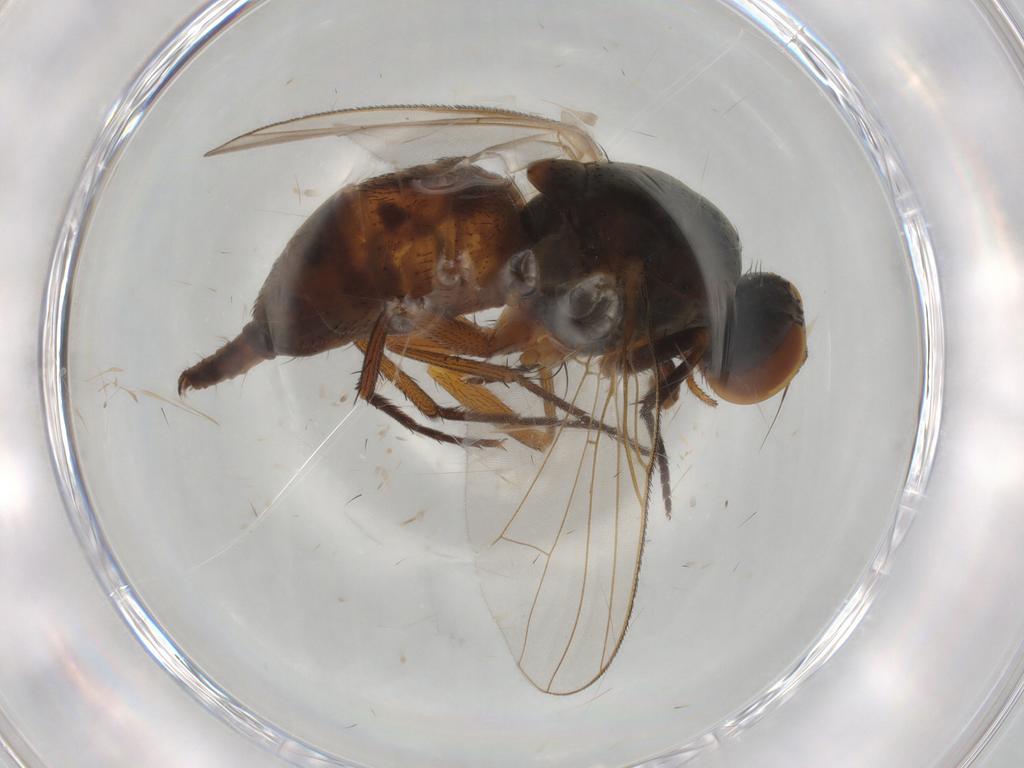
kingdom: Animalia
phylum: Arthropoda
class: Insecta
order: Diptera
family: Muscidae
